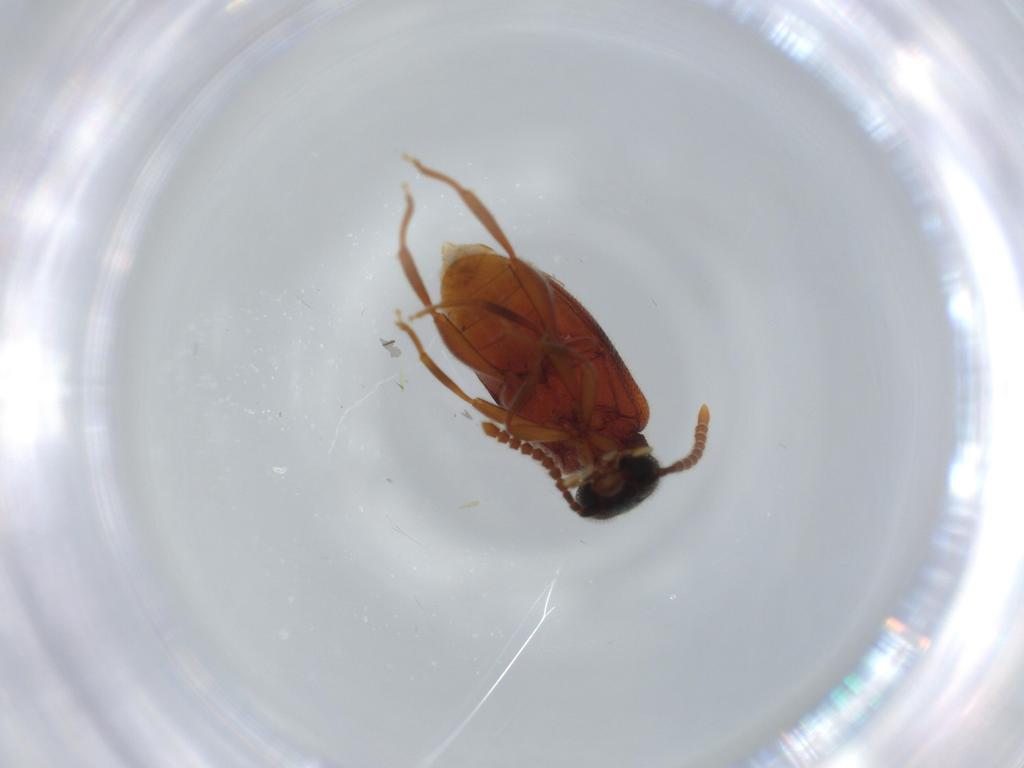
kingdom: Animalia
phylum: Arthropoda
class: Insecta
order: Coleoptera
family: Aderidae
